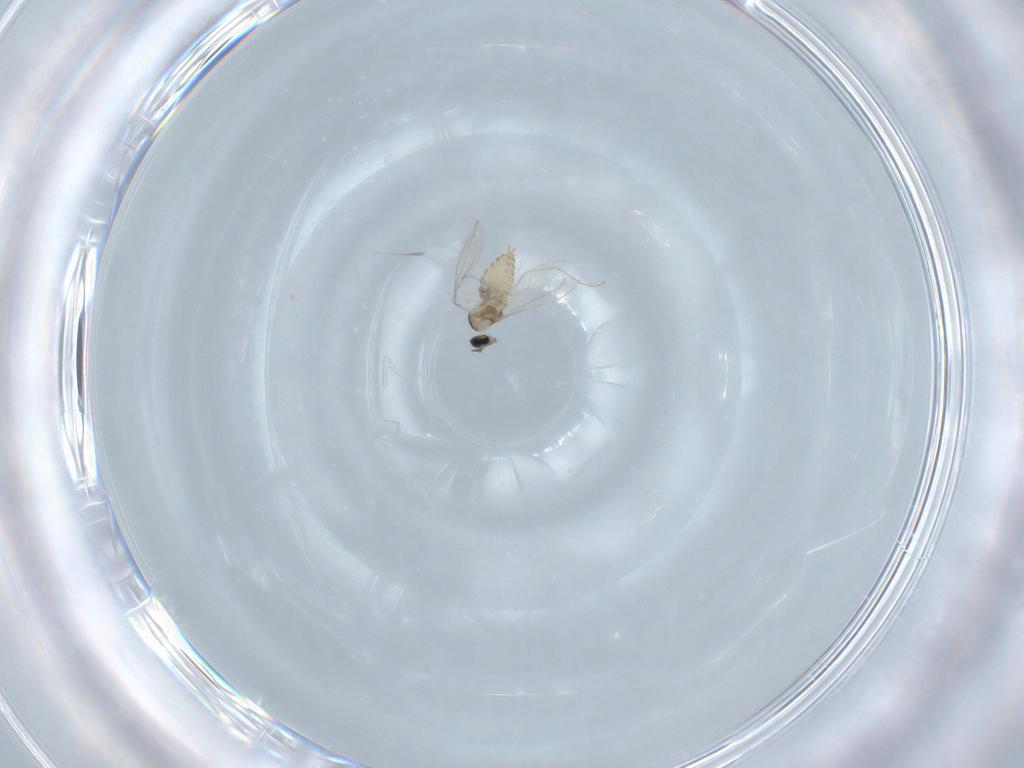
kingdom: Animalia
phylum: Arthropoda
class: Insecta
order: Diptera
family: Cecidomyiidae
